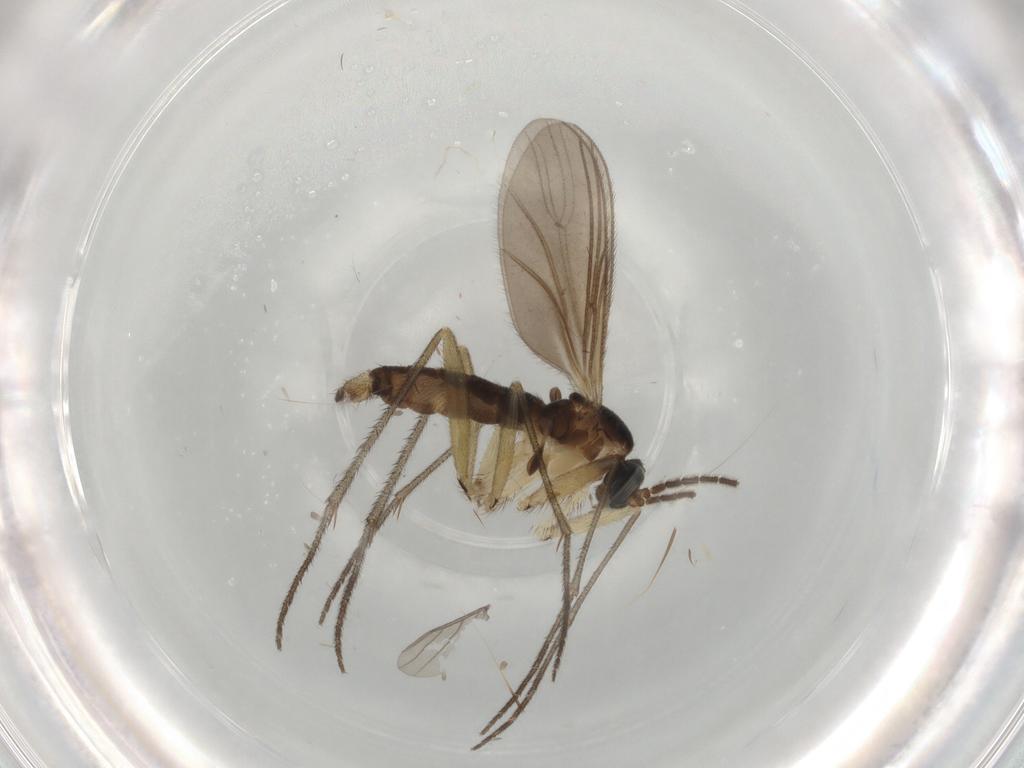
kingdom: Animalia
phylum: Arthropoda
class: Insecta
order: Diptera
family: Sciaridae
